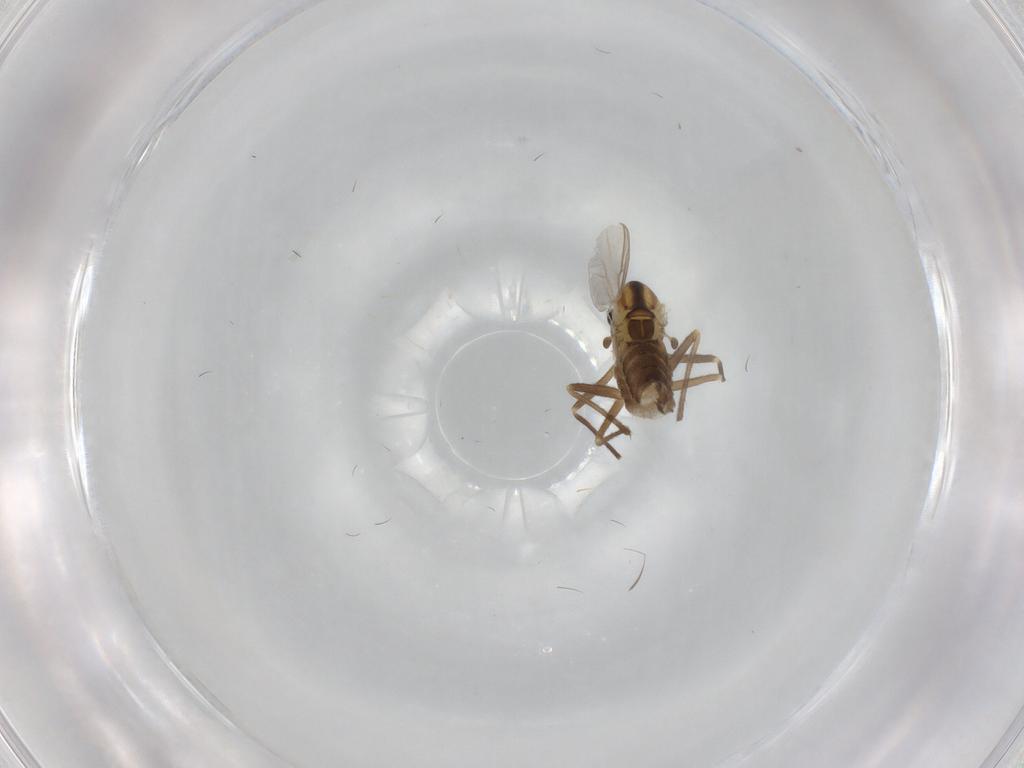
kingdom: Animalia
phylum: Arthropoda
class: Insecta
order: Diptera
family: Chironomidae
